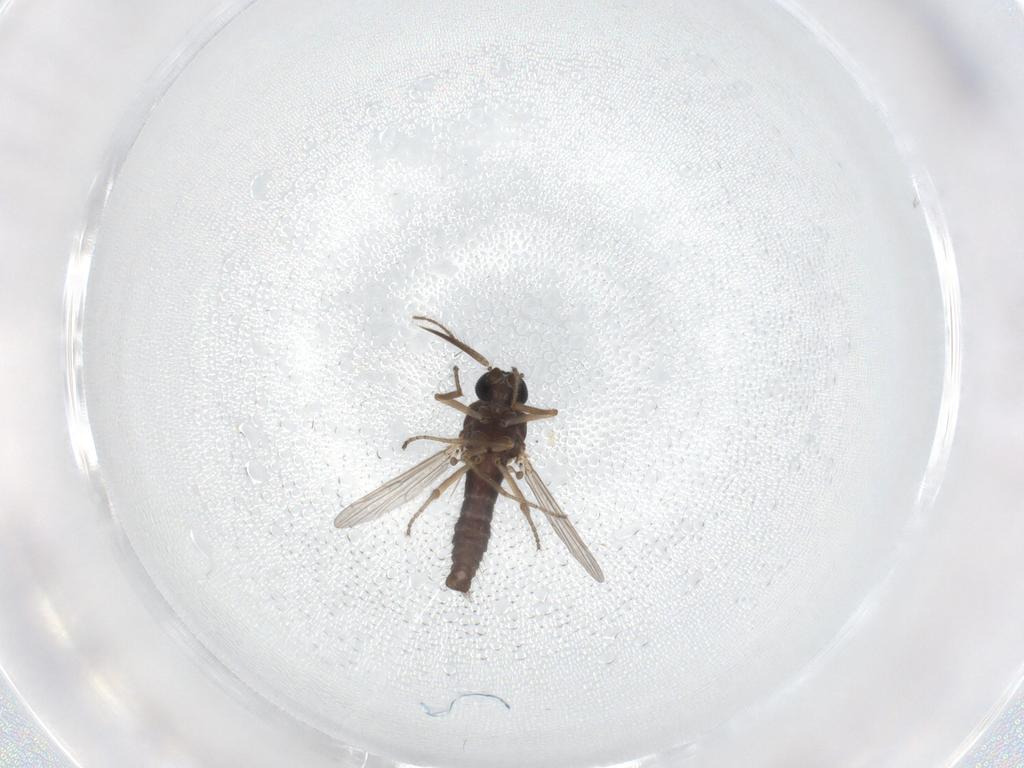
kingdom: Animalia
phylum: Arthropoda
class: Insecta
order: Diptera
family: Ceratopogonidae
